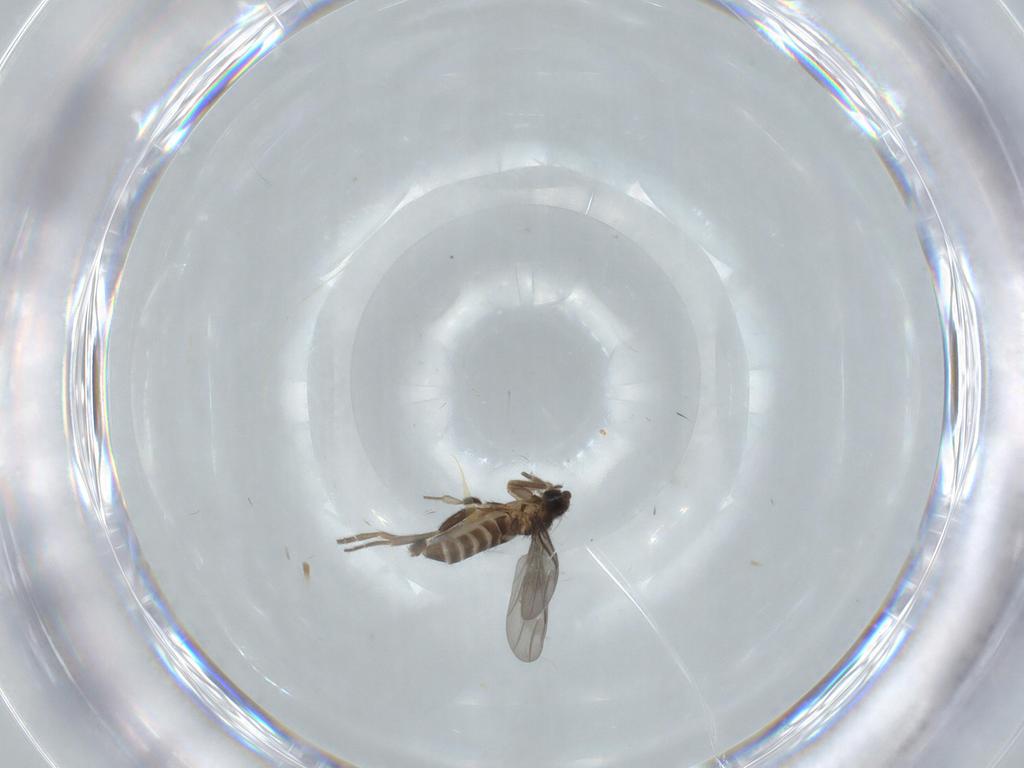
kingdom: Animalia
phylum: Arthropoda
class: Insecta
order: Diptera
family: Phoridae
